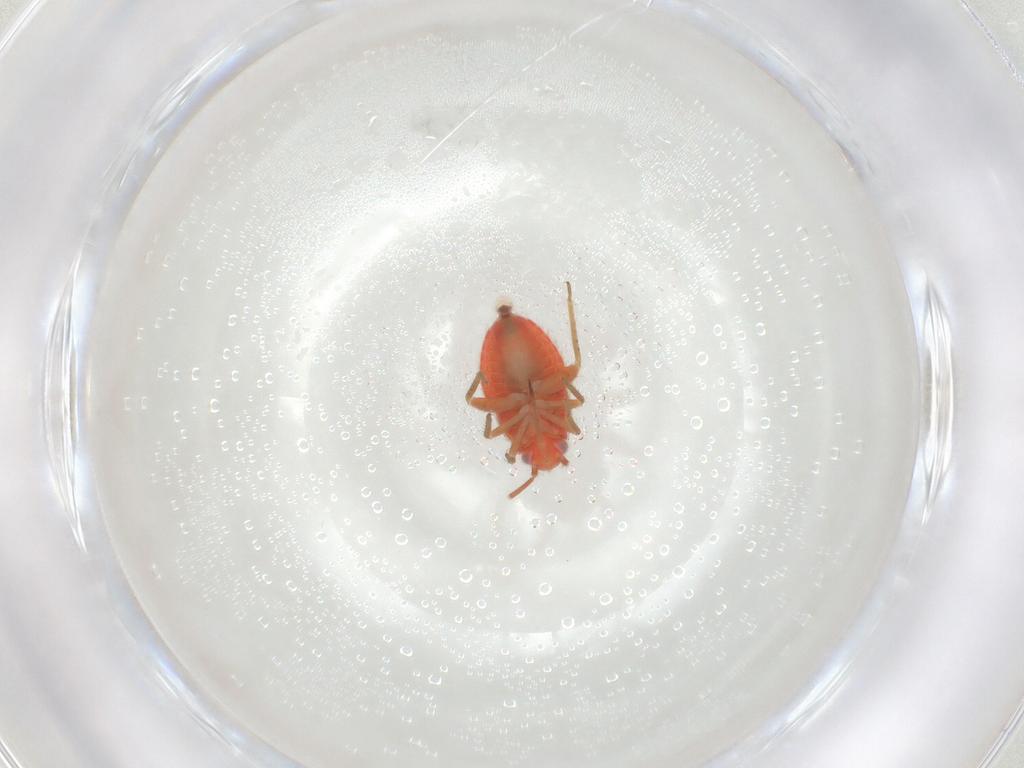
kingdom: Animalia
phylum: Arthropoda
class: Insecta
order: Hemiptera
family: Miridae
